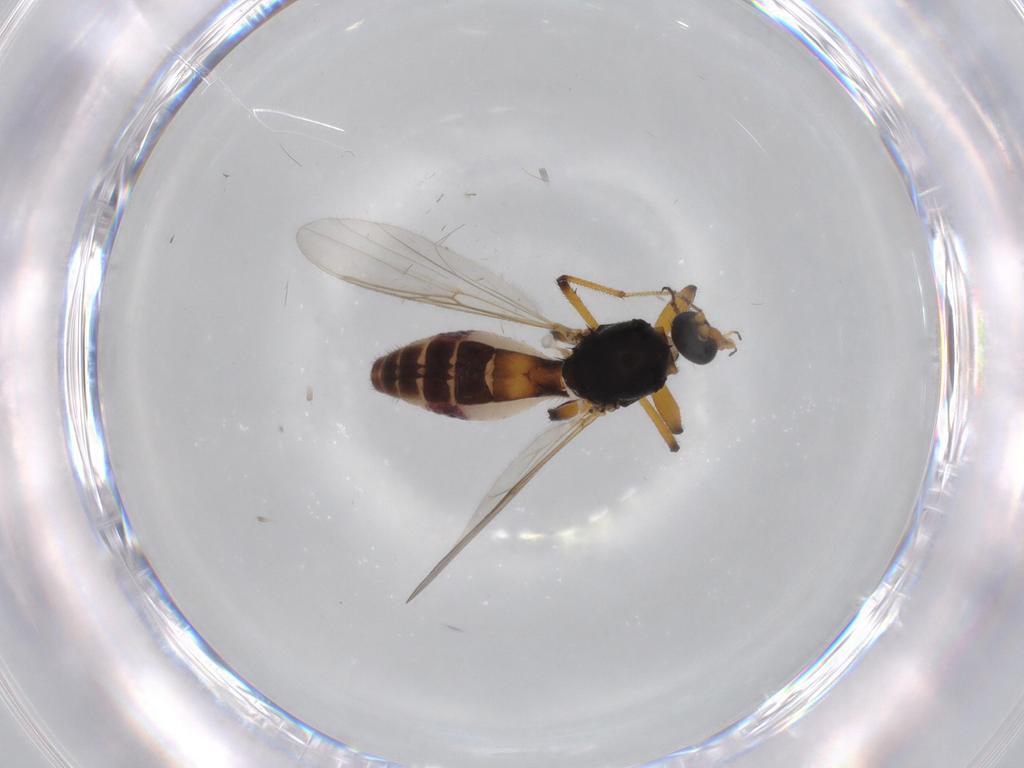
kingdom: Animalia
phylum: Arthropoda
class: Insecta
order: Diptera
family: Ceratopogonidae
